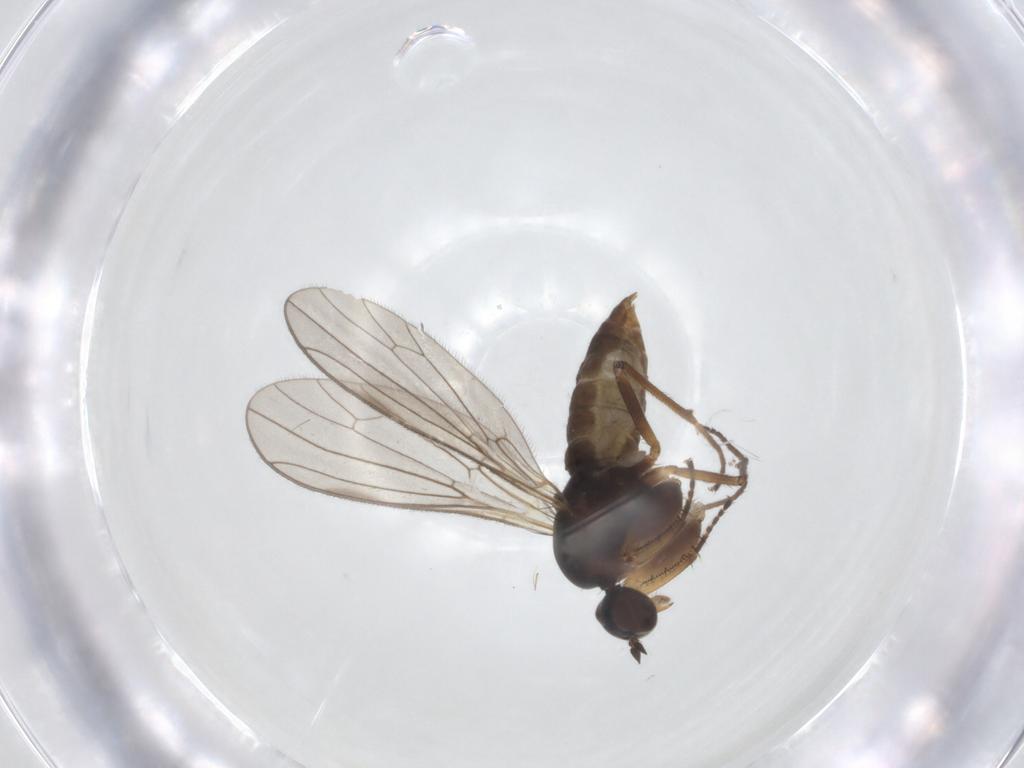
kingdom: Animalia
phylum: Arthropoda
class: Insecta
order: Diptera
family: Empididae
